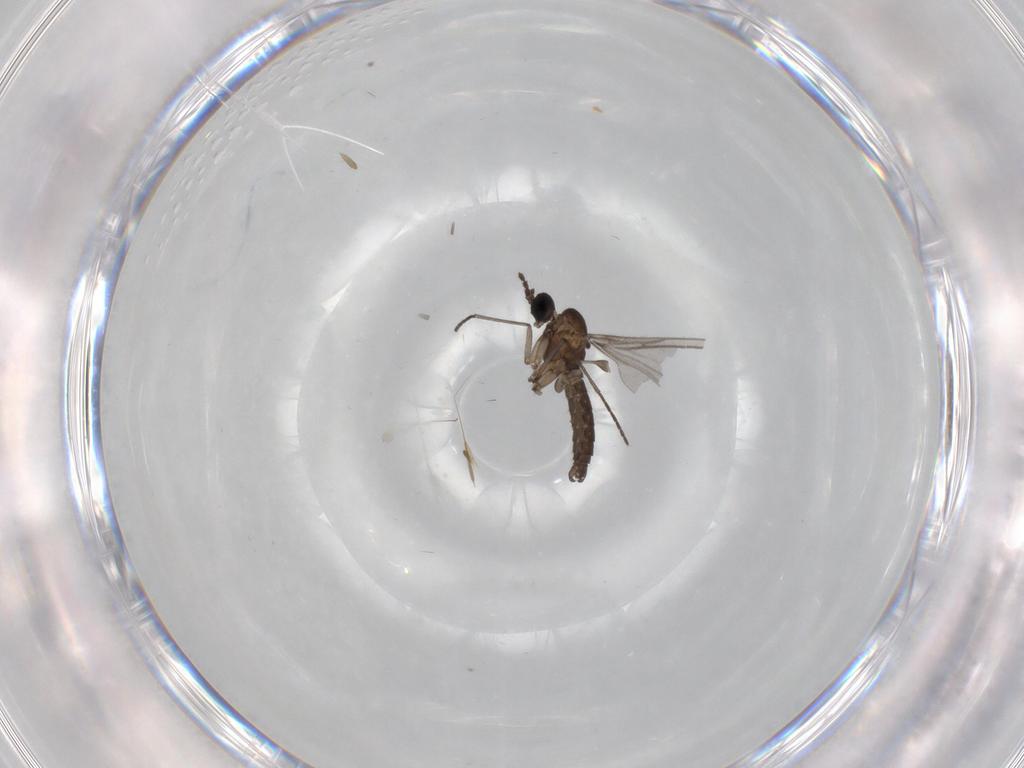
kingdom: Animalia
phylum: Arthropoda
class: Insecta
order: Diptera
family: Sciaridae
